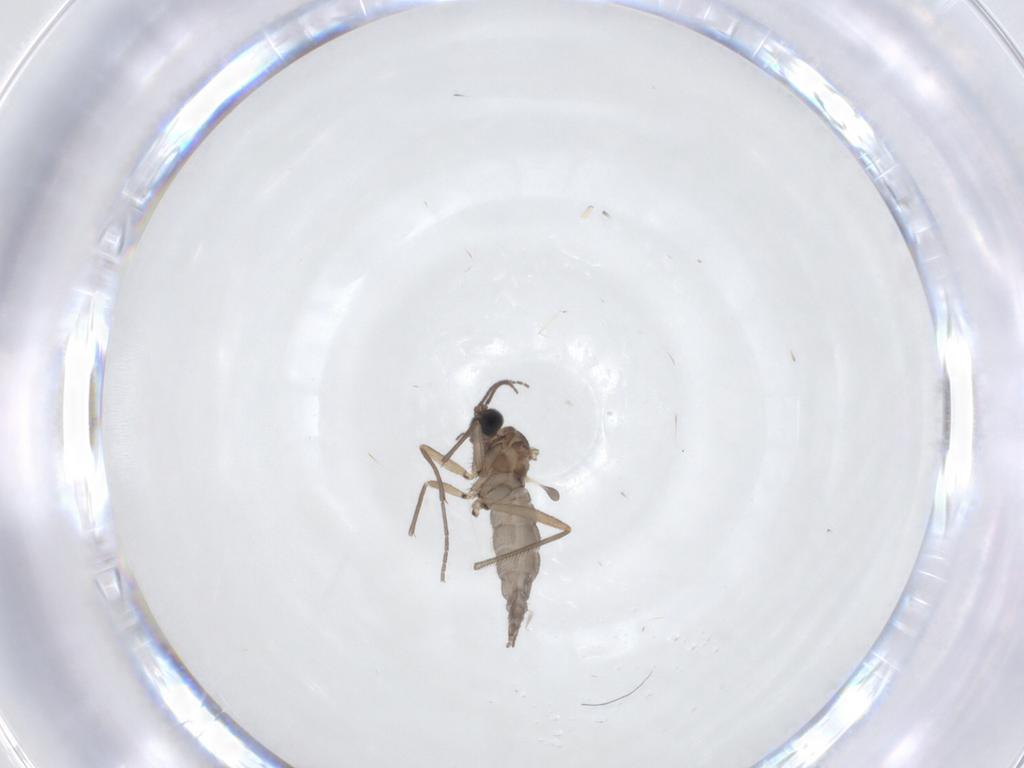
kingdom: Animalia
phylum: Arthropoda
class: Insecta
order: Diptera
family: Sciaridae
